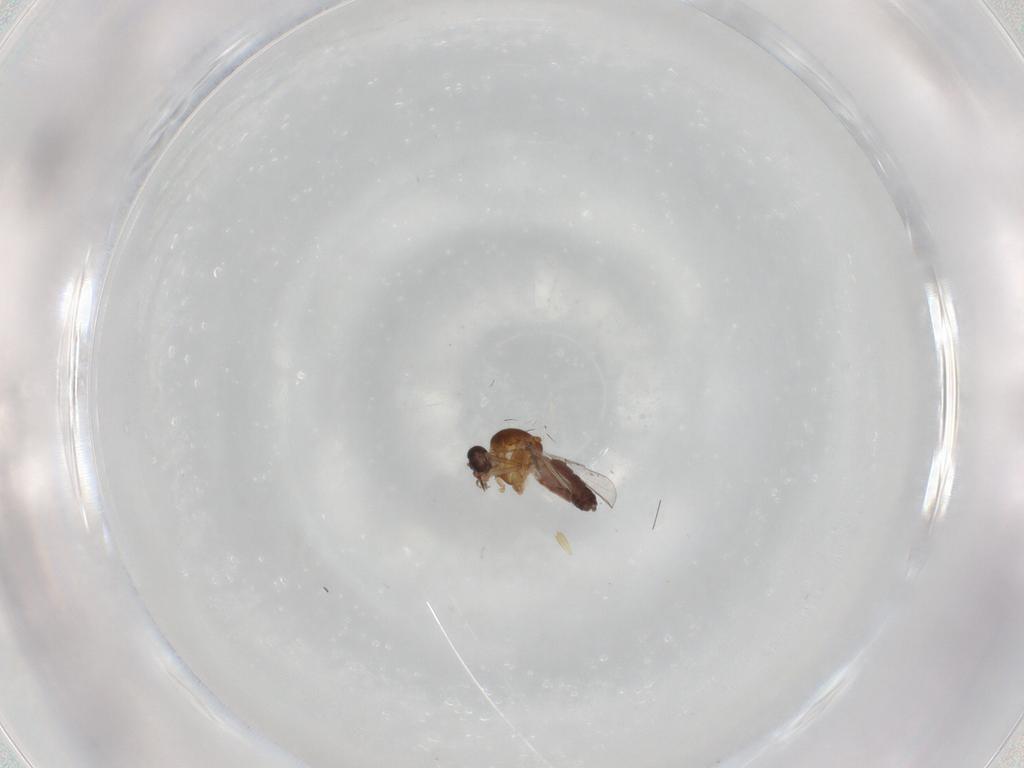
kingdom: Animalia
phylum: Arthropoda
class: Insecta
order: Diptera
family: Ceratopogonidae
